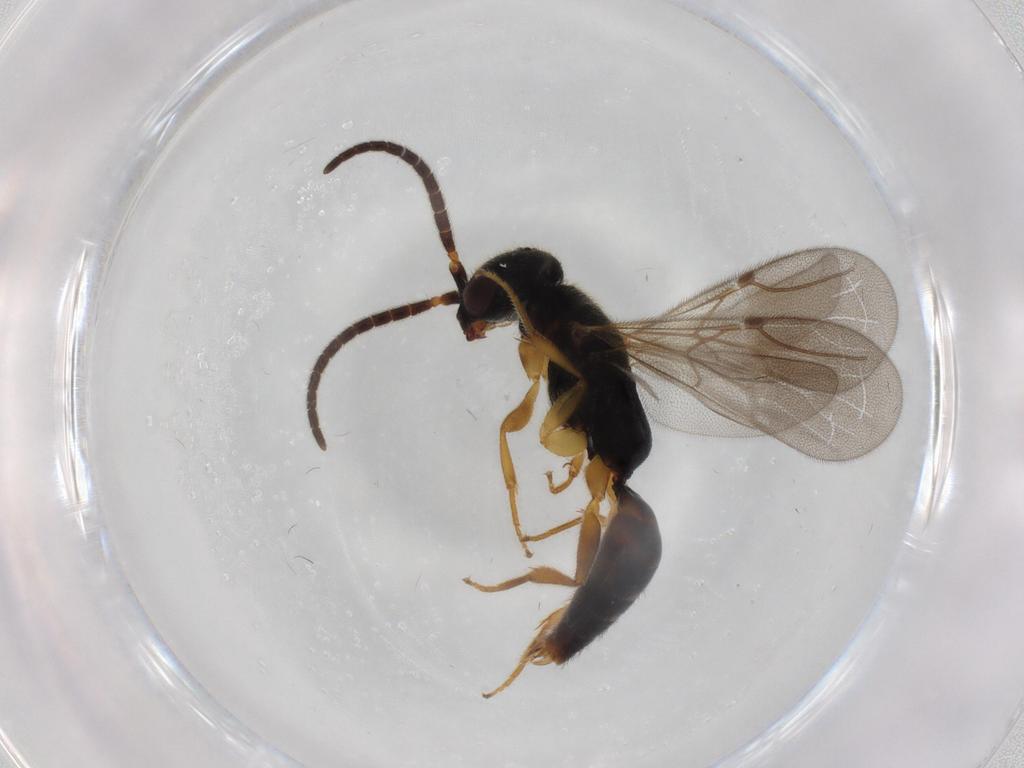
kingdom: Animalia
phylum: Arthropoda
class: Insecta
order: Hymenoptera
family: Bethylidae
